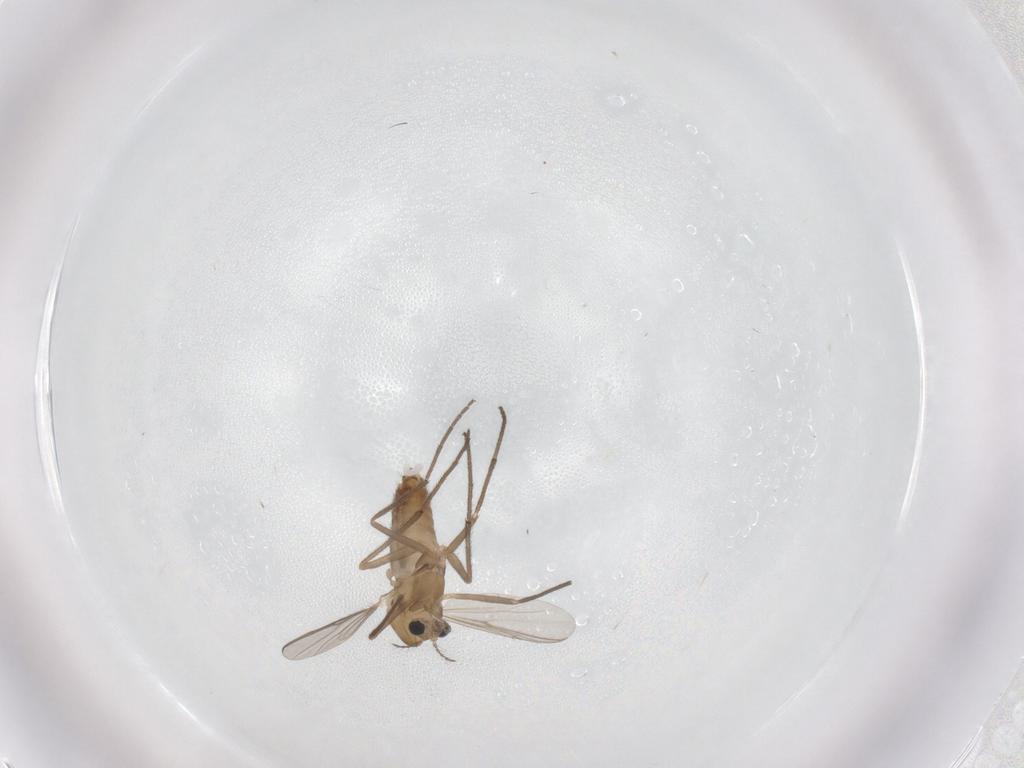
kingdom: Animalia
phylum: Arthropoda
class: Insecta
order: Diptera
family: Chironomidae
